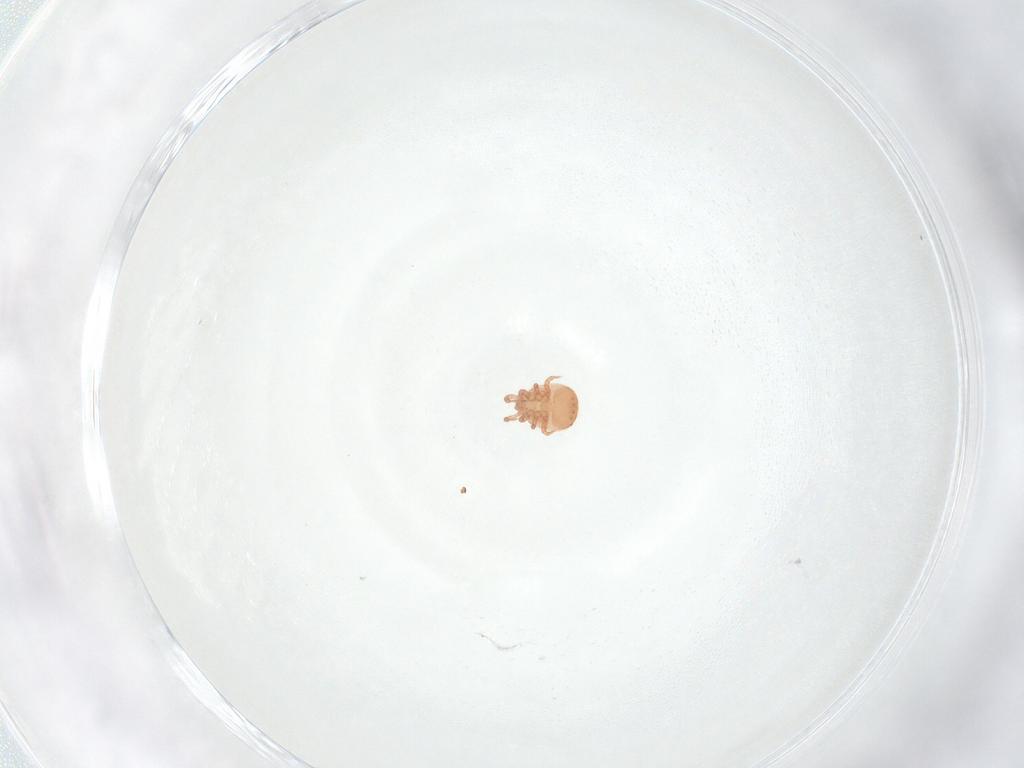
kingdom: Animalia
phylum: Arthropoda
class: Arachnida
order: Mesostigmata
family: Zerconidae
